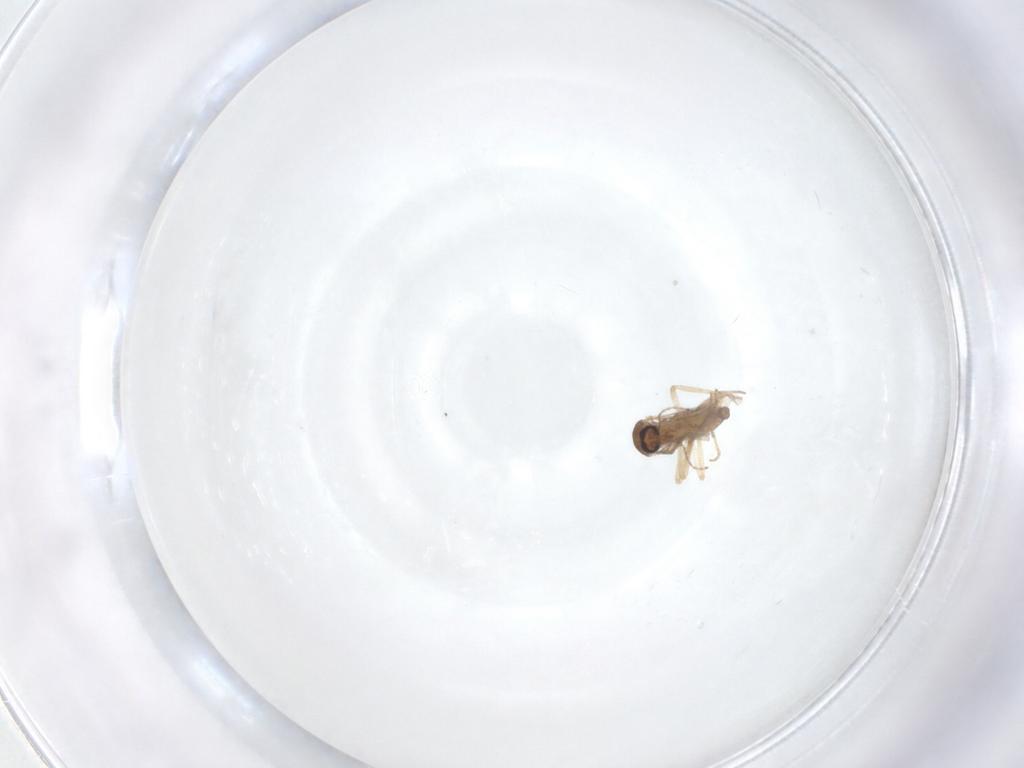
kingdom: Animalia
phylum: Arthropoda
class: Insecta
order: Diptera
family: Ceratopogonidae
